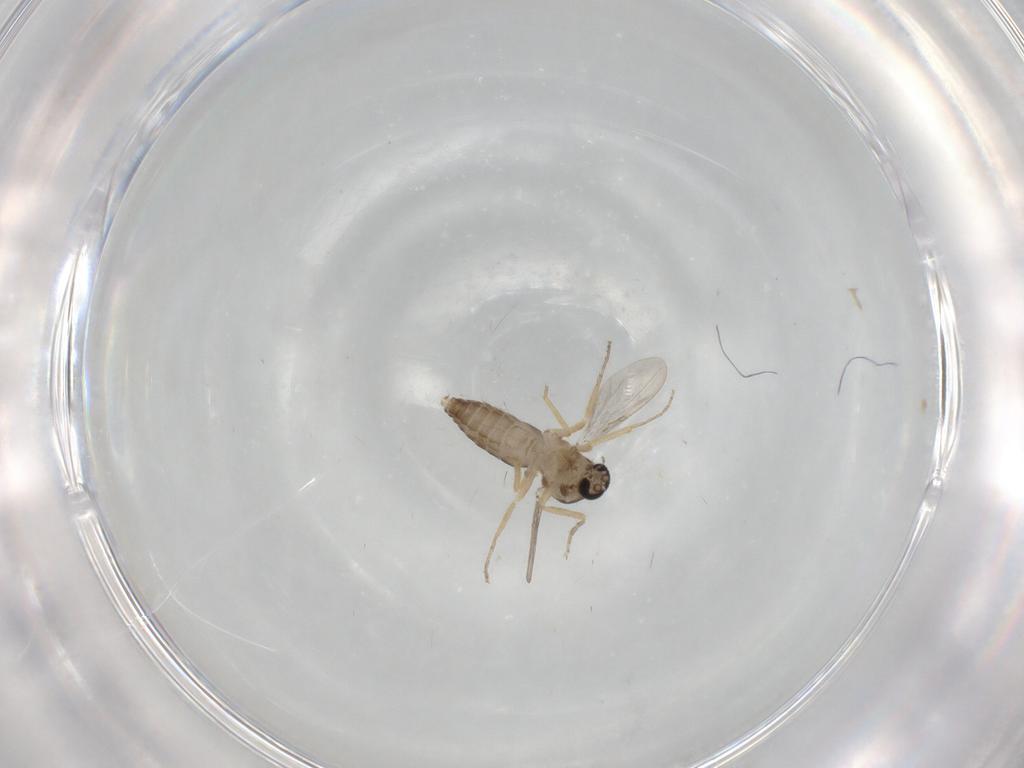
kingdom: Animalia
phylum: Arthropoda
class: Insecta
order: Diptera
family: Ceratopogonidae
